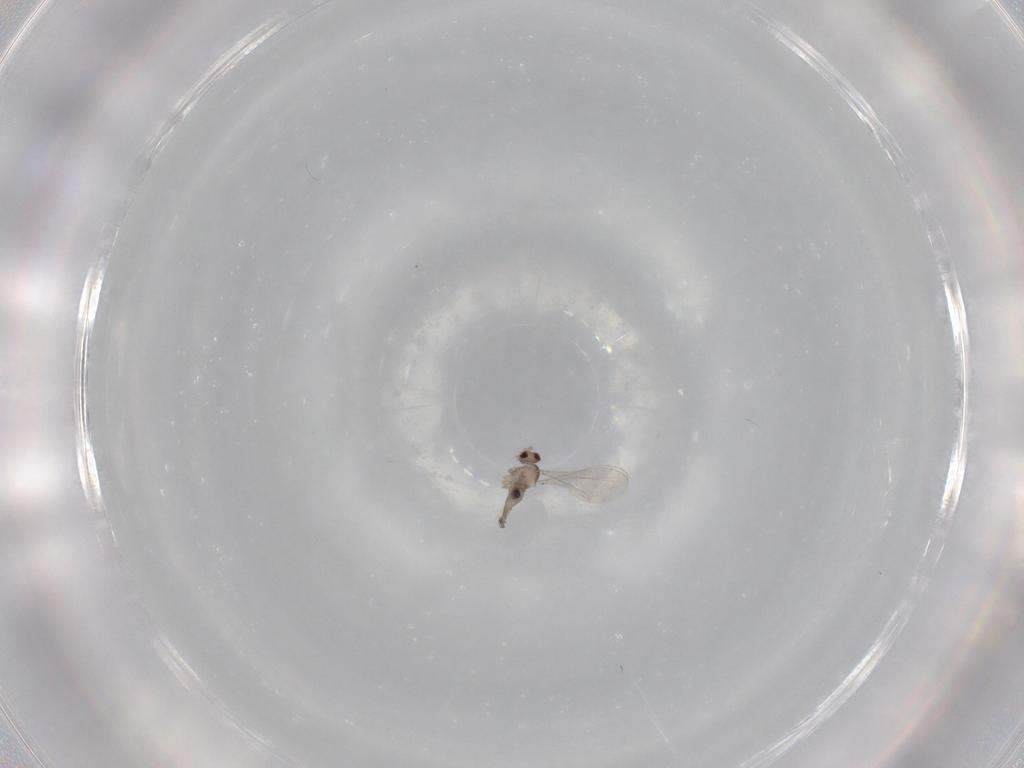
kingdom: Animalia
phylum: Arthropoda
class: Insecta
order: Diptera
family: Cecidomyiidae
